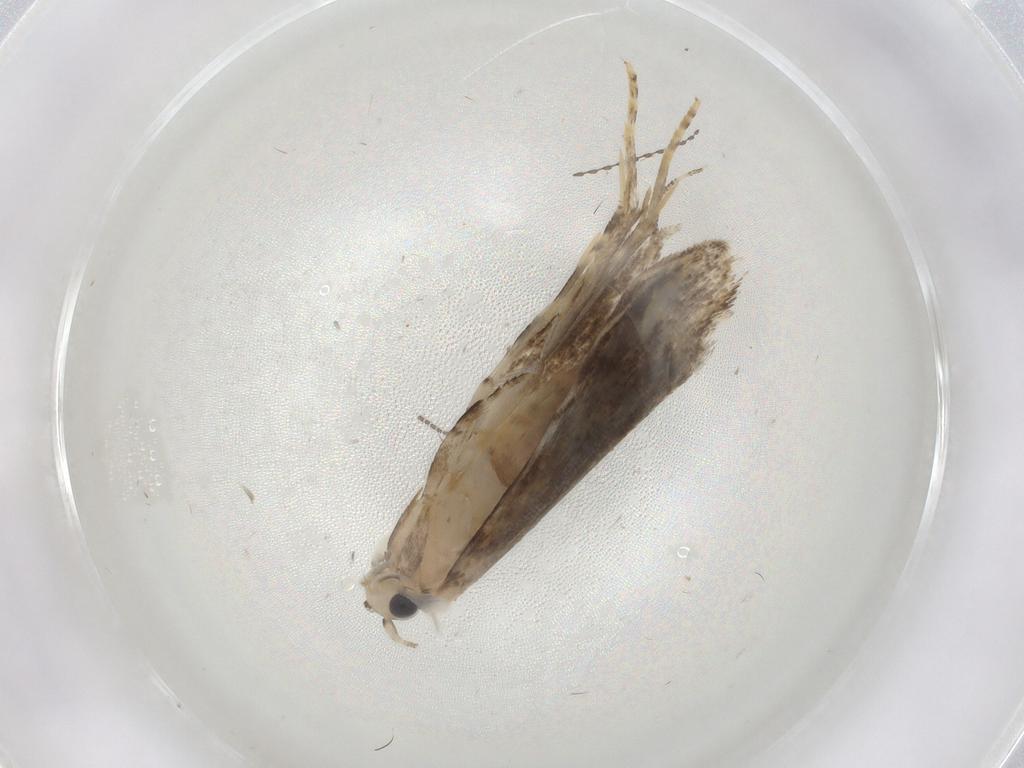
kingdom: Animalia
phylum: Arthropoda
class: Insecta
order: Lepidoptera
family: Tineidae
